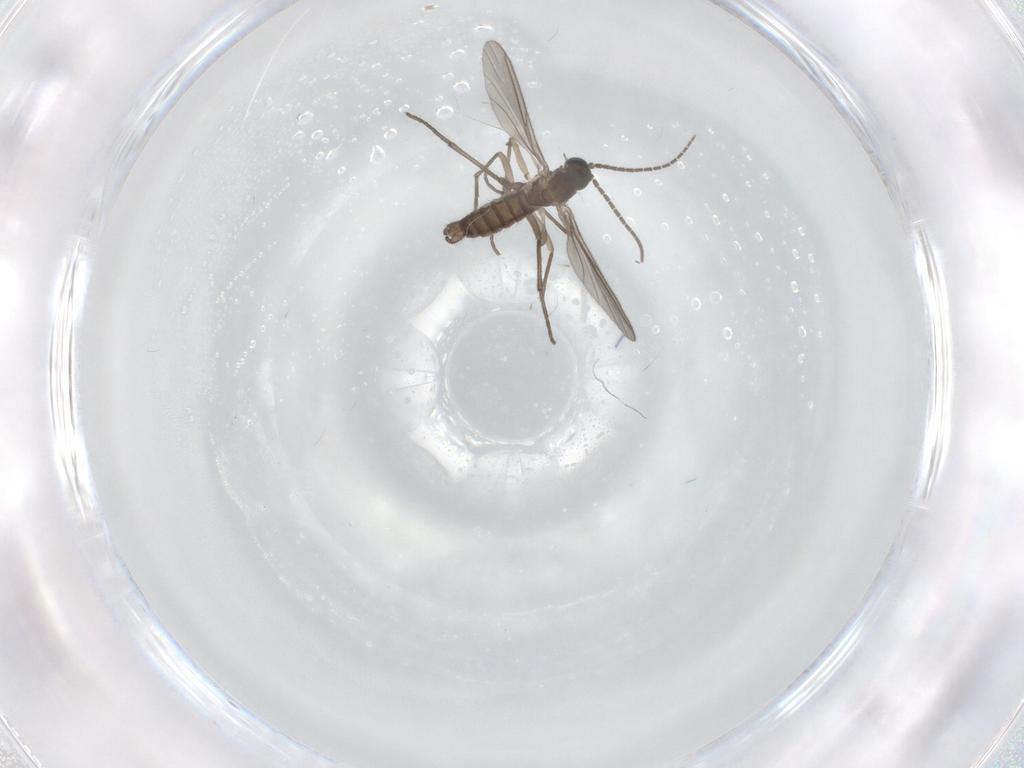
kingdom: Animalia
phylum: Arthropoda
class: Insecta
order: Diptera
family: Sciaridae
